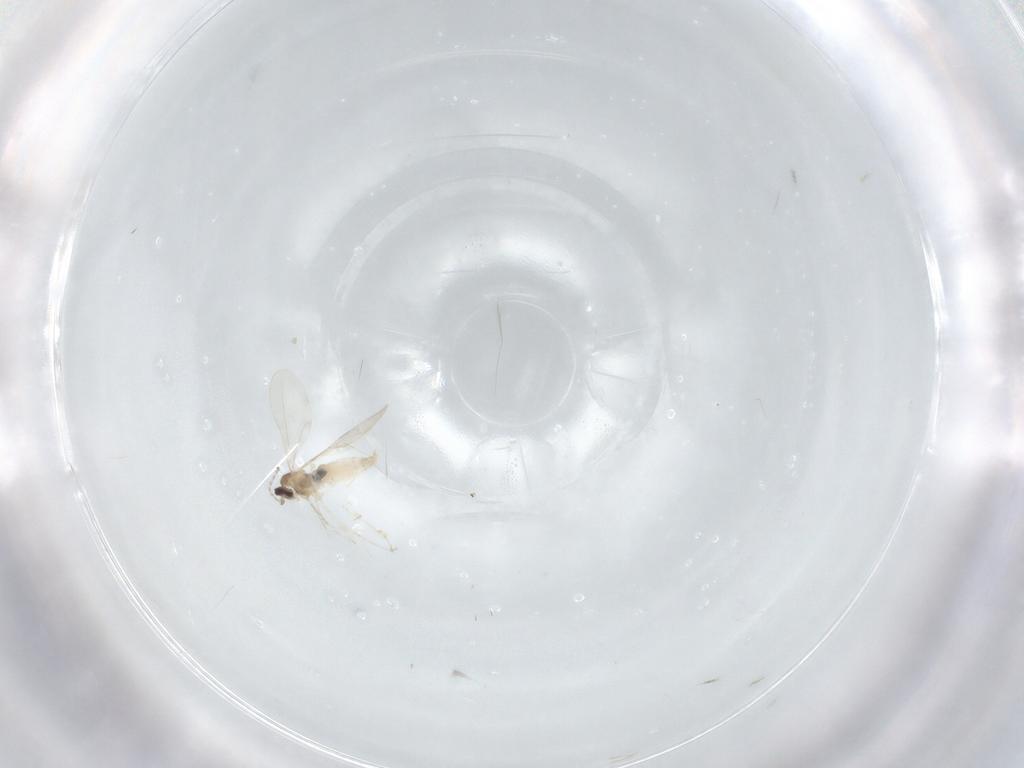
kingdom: Animalia
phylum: Arthropoda
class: Insecta
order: Diptera
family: Cecidomyiidae
